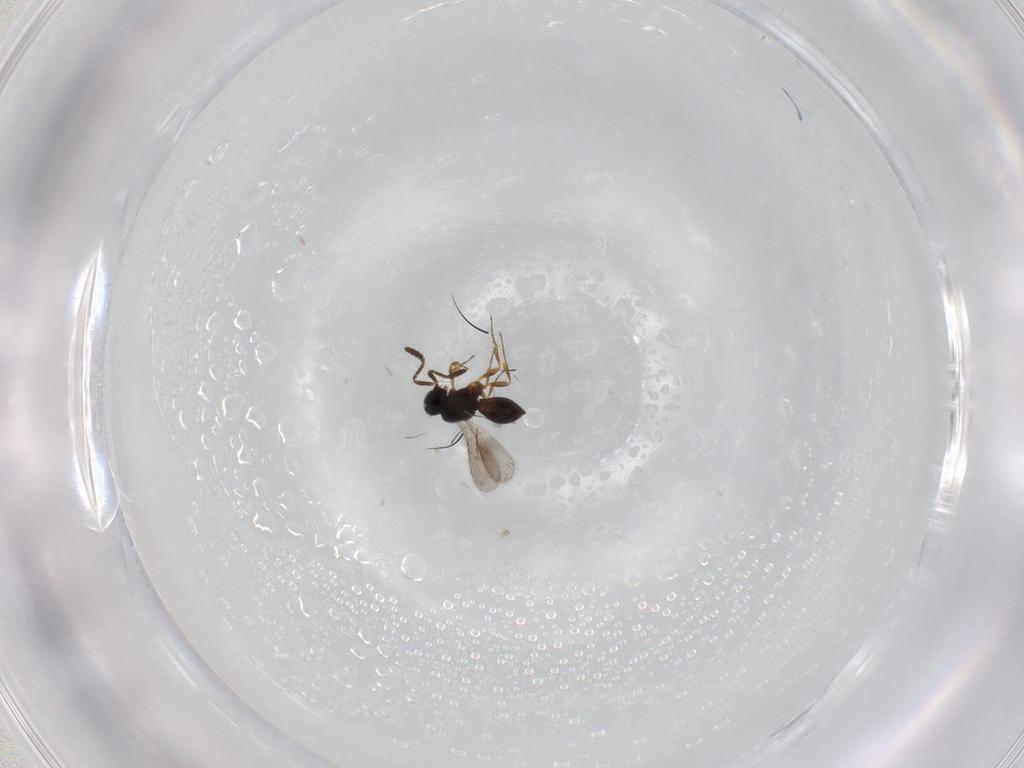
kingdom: Animalia
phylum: Arthropoda
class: Insecta
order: Hymenoptera
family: Scelionidae
